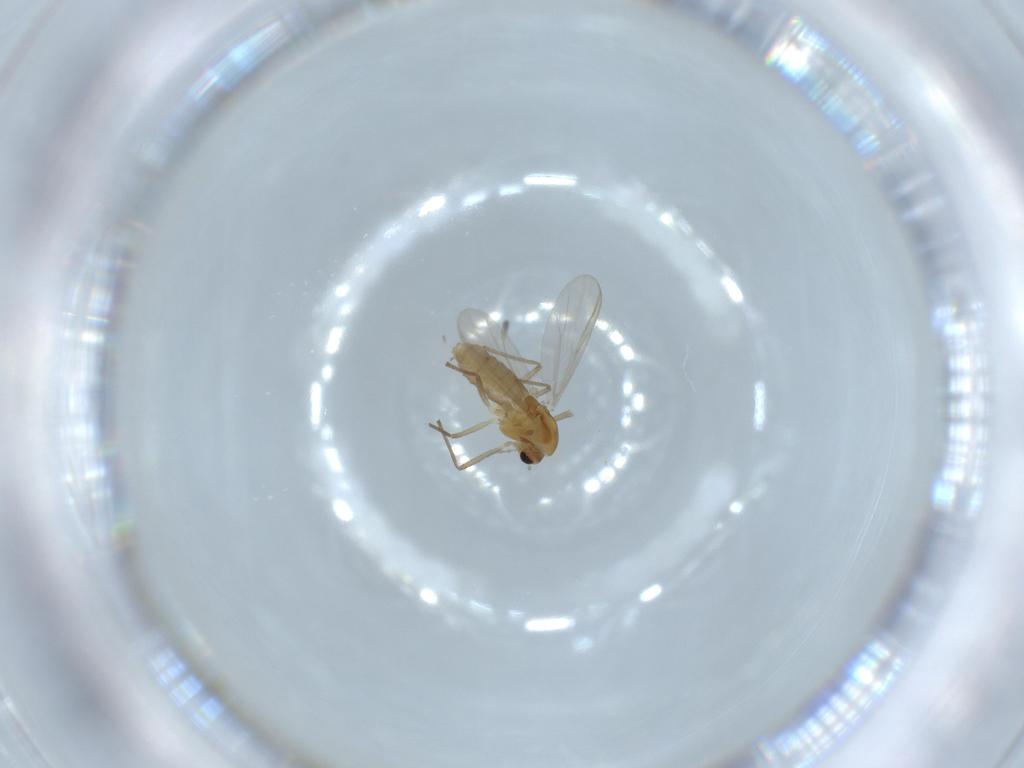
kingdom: Animalia
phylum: Arthropoda
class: Insecta
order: Diptera
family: Chironomidae
